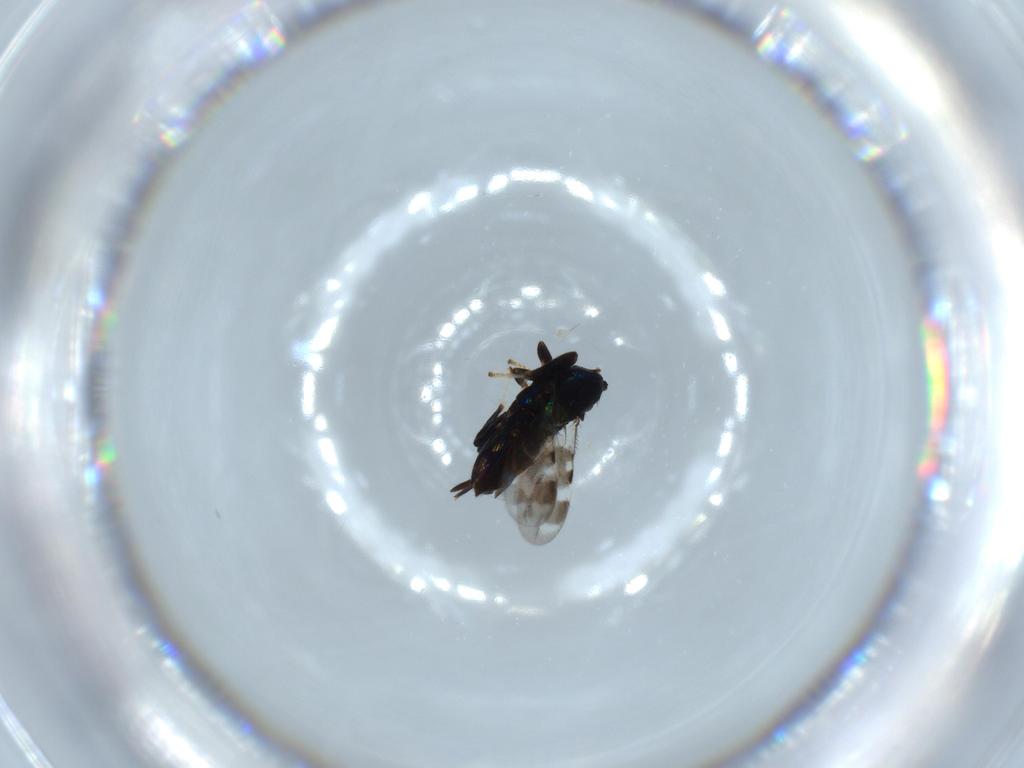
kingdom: Animalia
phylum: Arthropoda
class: Insecta
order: Hymenoptera
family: Encyrtidae
